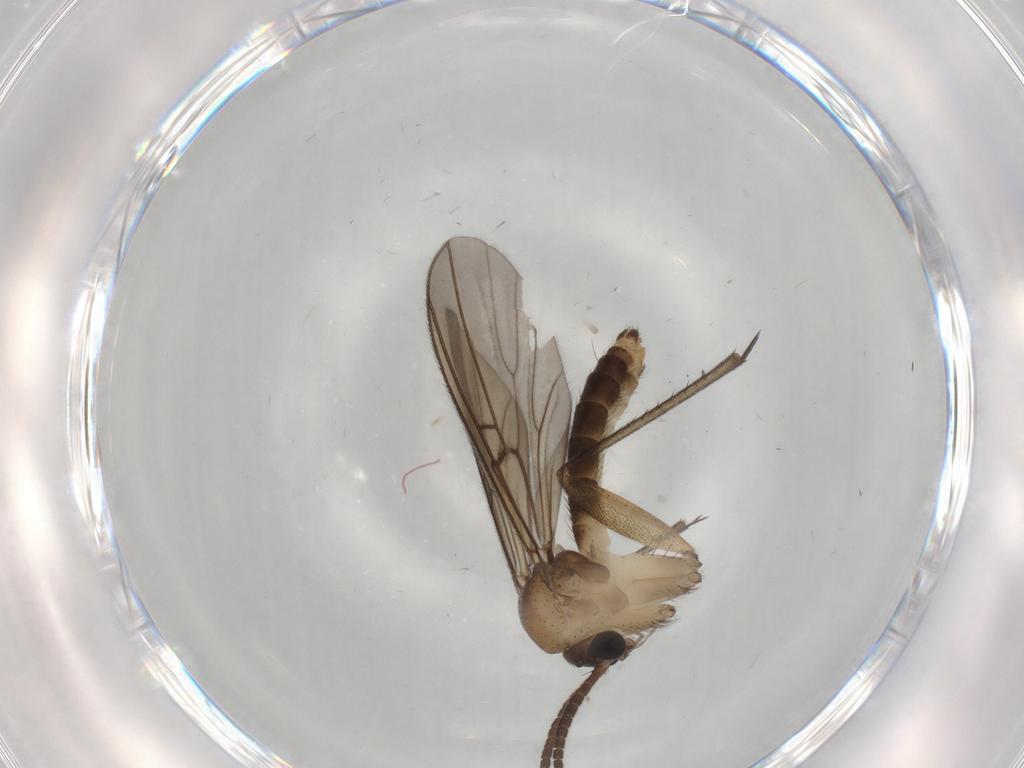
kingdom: Animalia
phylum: Arthropoda
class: Insecta
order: Diptera
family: Mycetophilidae
